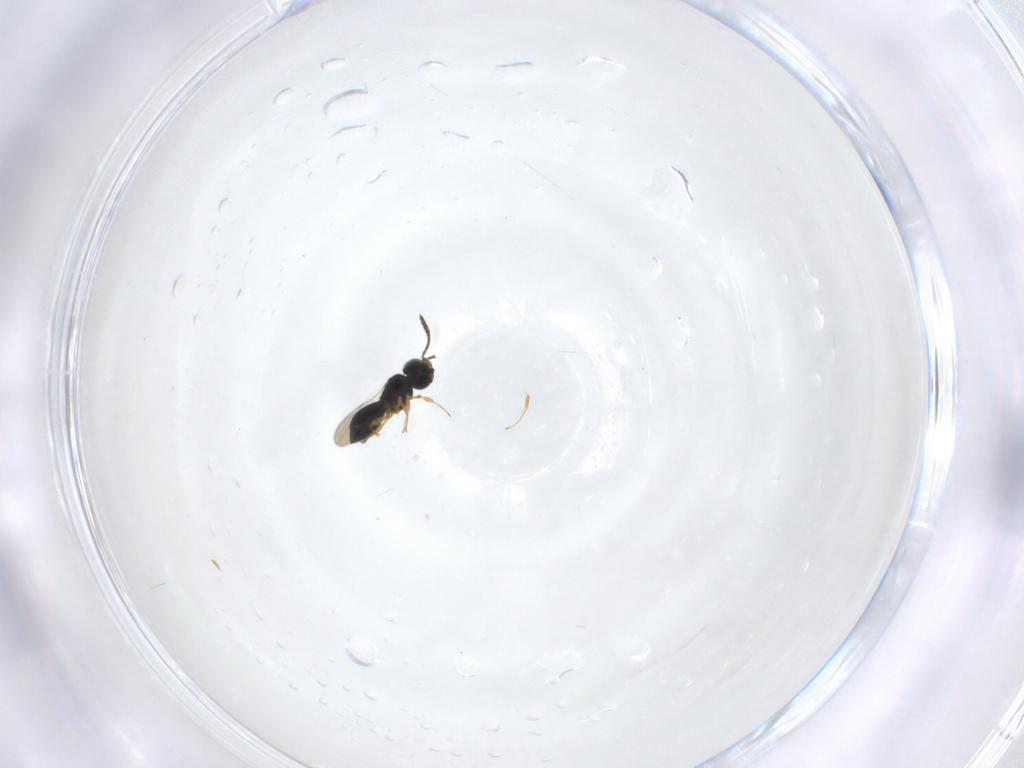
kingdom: Animalia
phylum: Arthropoda
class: Insecta
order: Hymenoptera
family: Scelionidae
